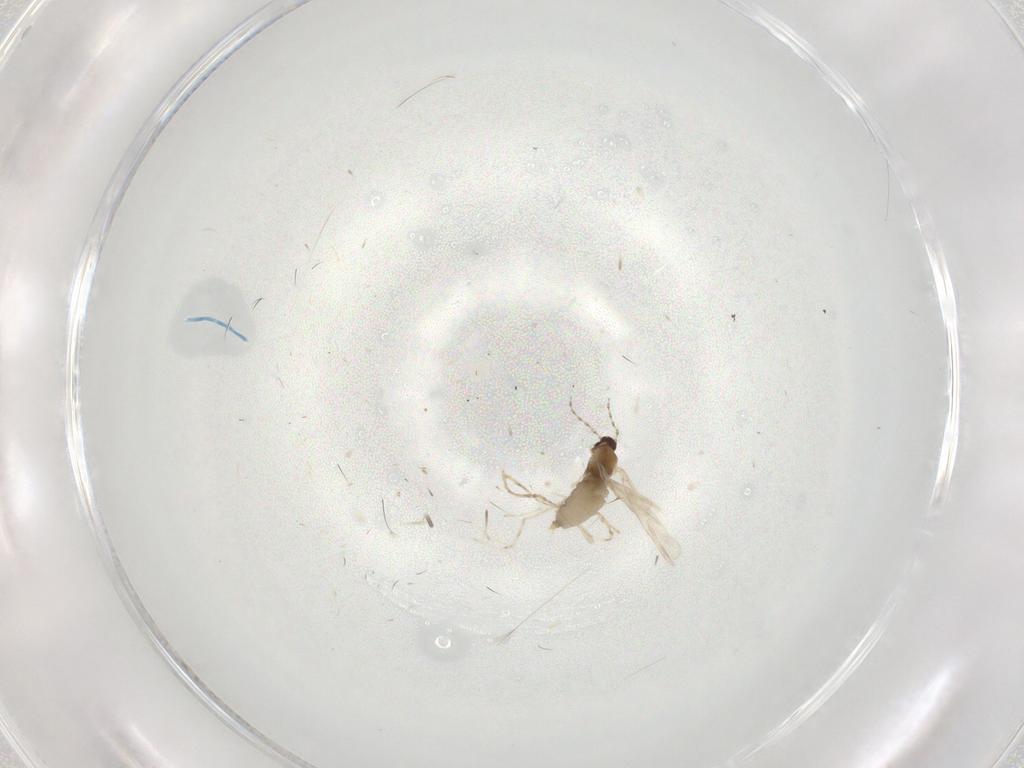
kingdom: Animalia
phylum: Arthropoda
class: Insecta
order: Diptera
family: Cecidomyiidae
